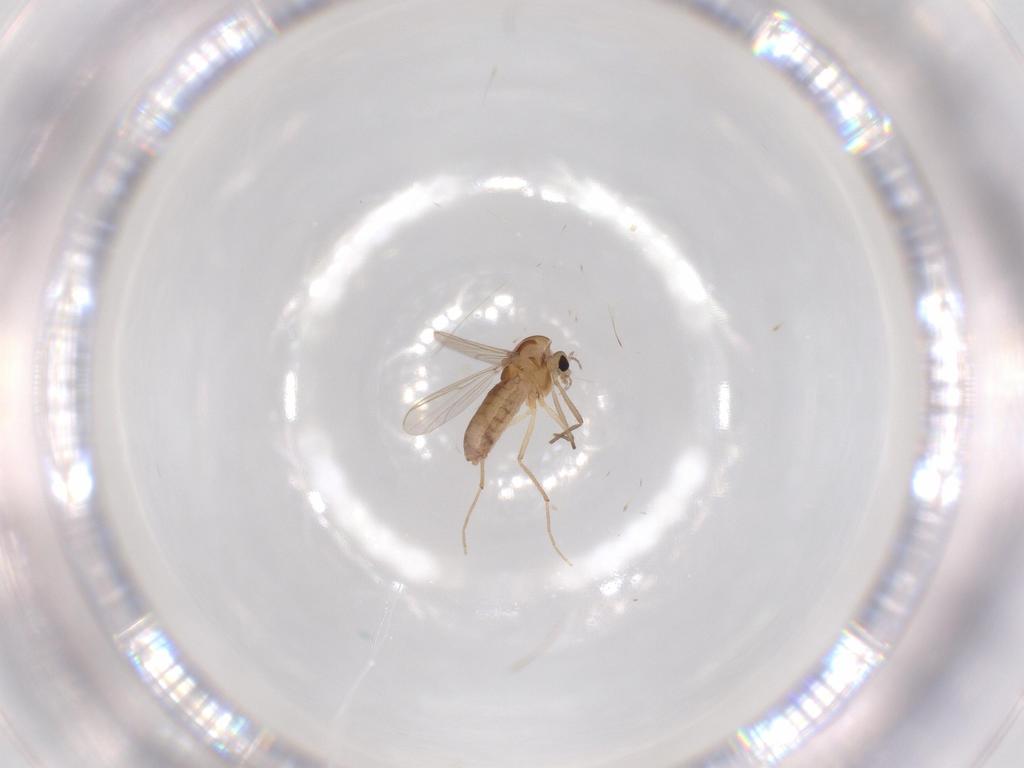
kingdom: Animalia
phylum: Arthropoda
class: Insecta
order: Diptera
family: Chironomidae
